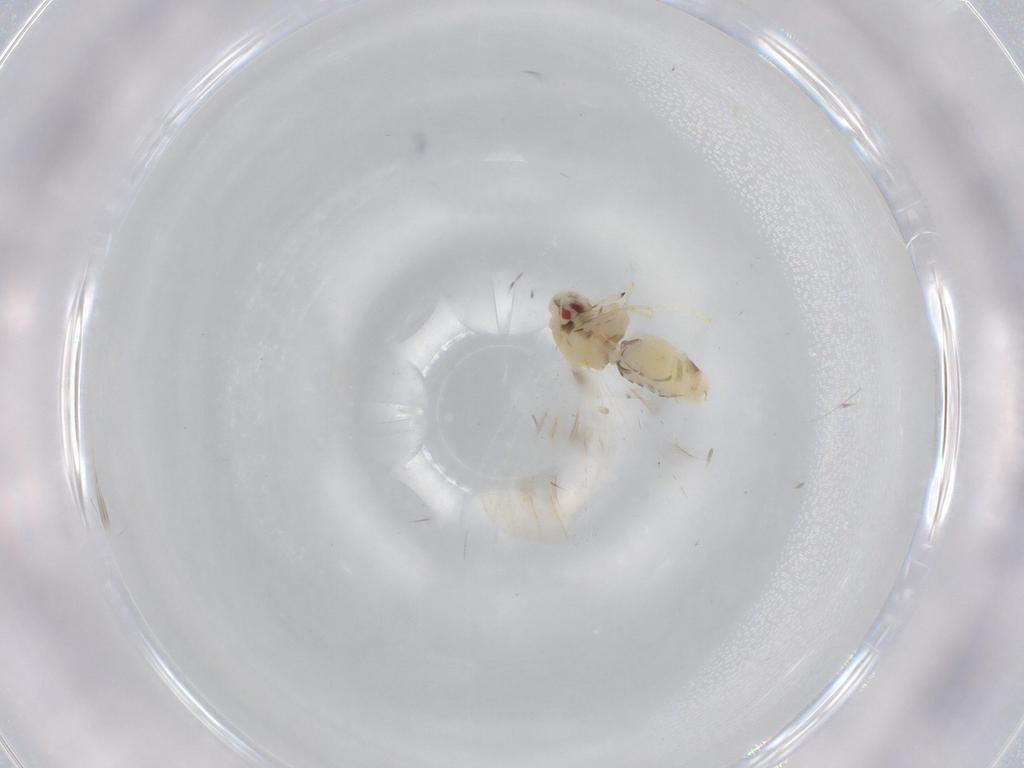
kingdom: Animalia
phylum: Arthropoda
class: Insecta
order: Hemiptera
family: Aleyrodidae
